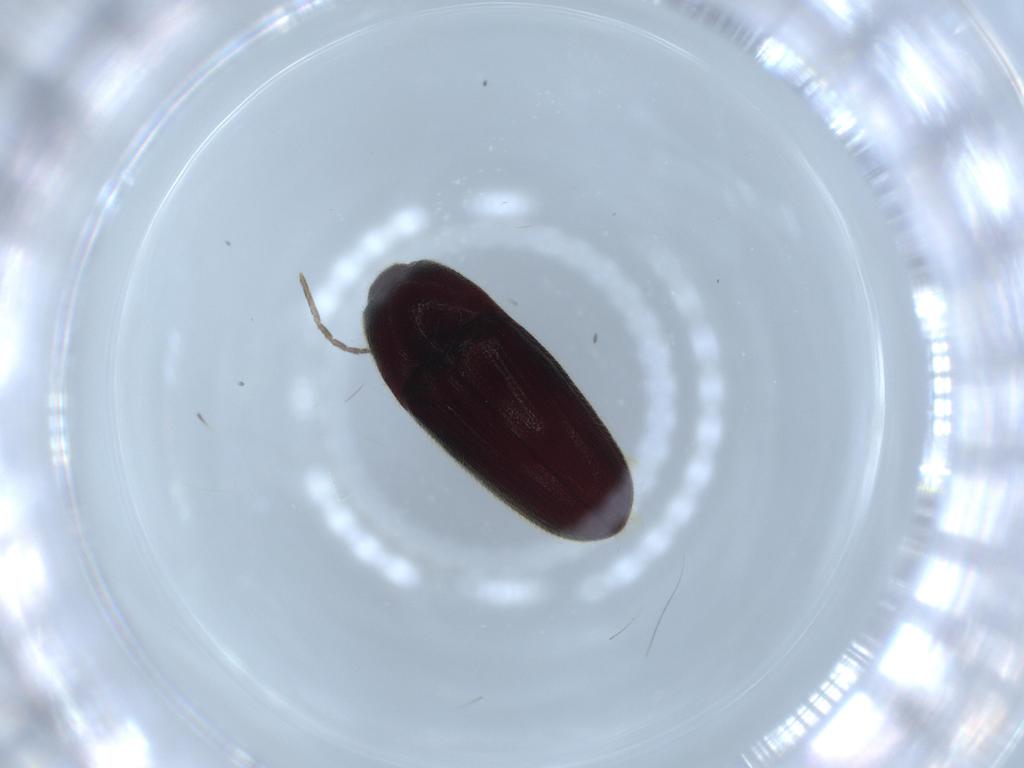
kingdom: Animalia
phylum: Arthropoda
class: Insecta
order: Coleoptera
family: Throscidae
